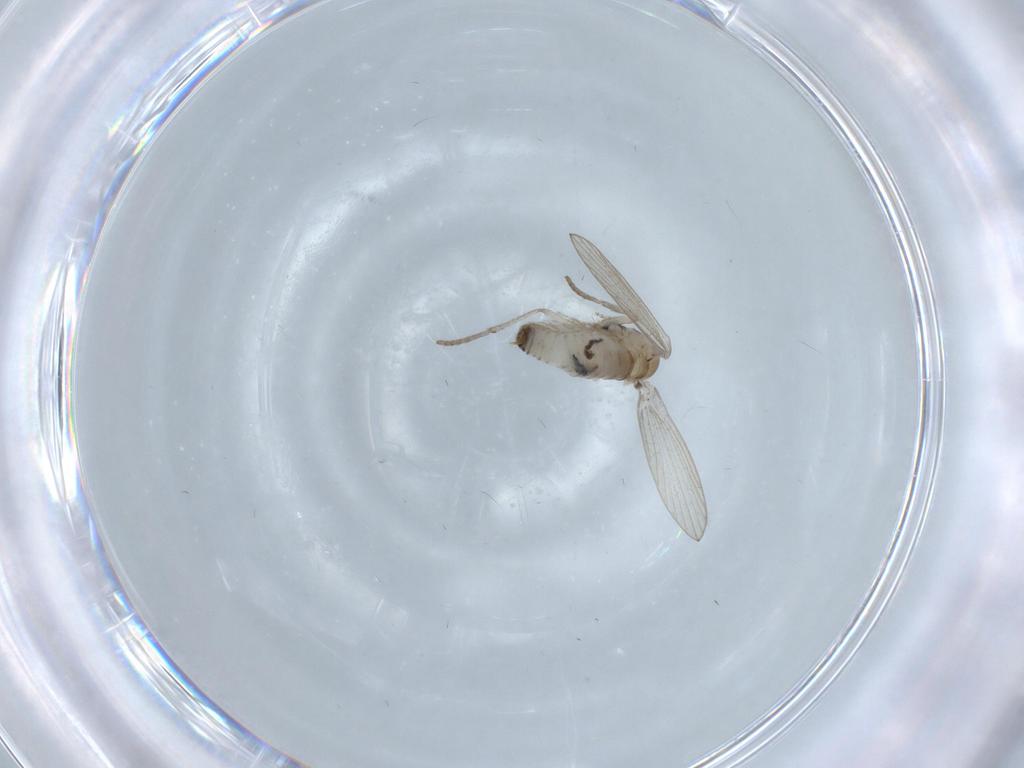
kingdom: Animalia
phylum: Arthropoda
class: Insecta
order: Diptera
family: Psychodidae
